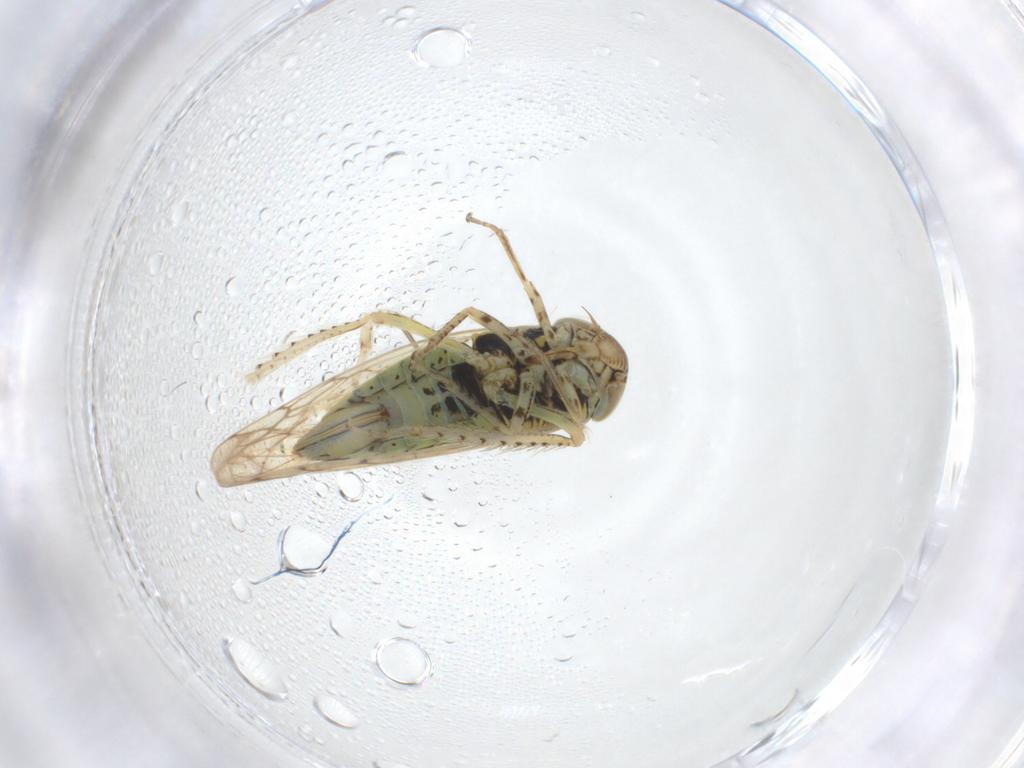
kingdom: Animalia
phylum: Arthropoda
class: Insecta
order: Hemiptera
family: Cicadellidae
